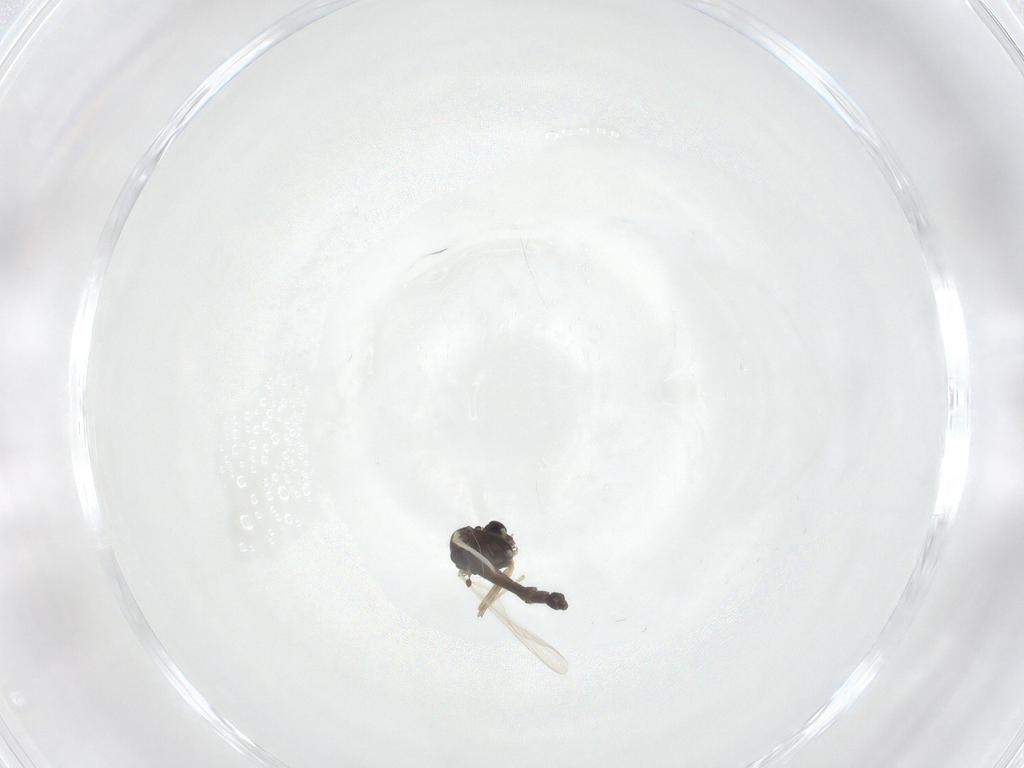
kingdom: Animalia
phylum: Arthropoda
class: Insecta
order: Diptera
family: Chironomidae
